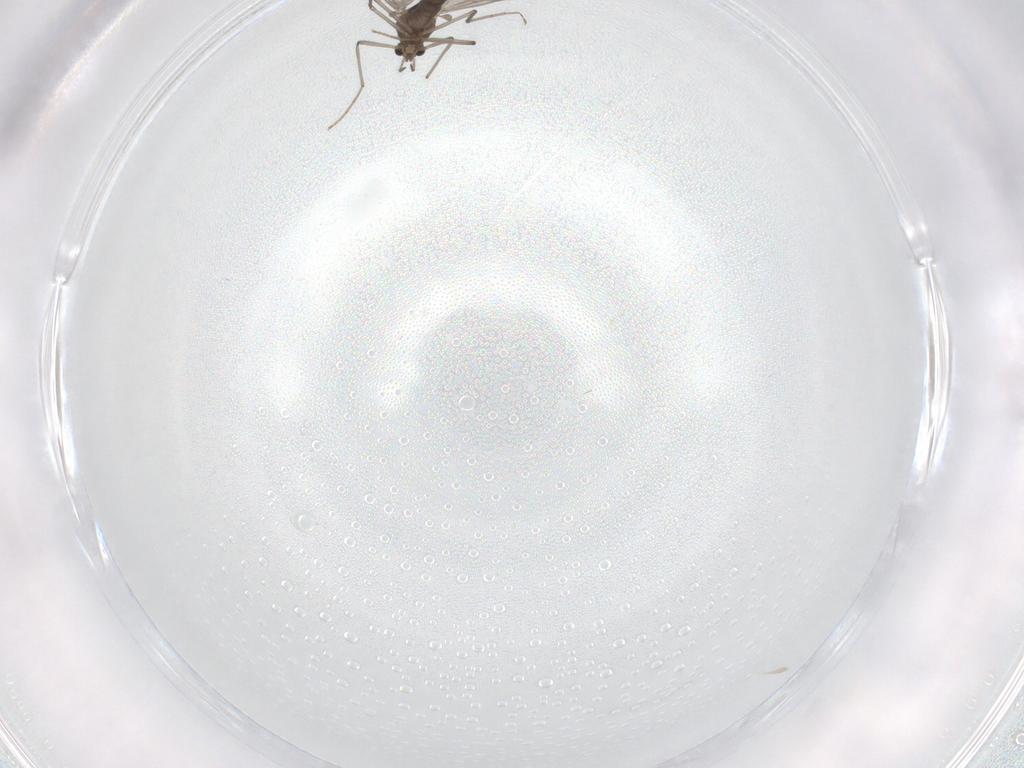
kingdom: Animalia
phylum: Arthropoda
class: Insecta
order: Diptera
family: Chironomidae
